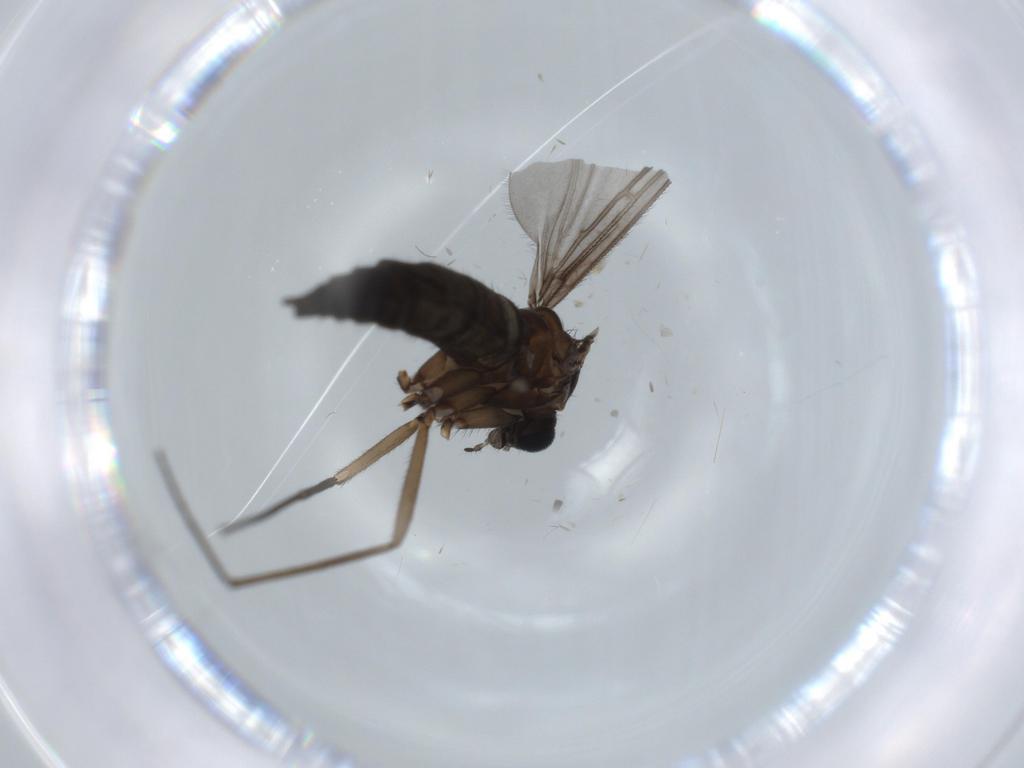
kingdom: Animalia
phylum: Arthropoda
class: Insecta
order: Diptera
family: Sciaridae
